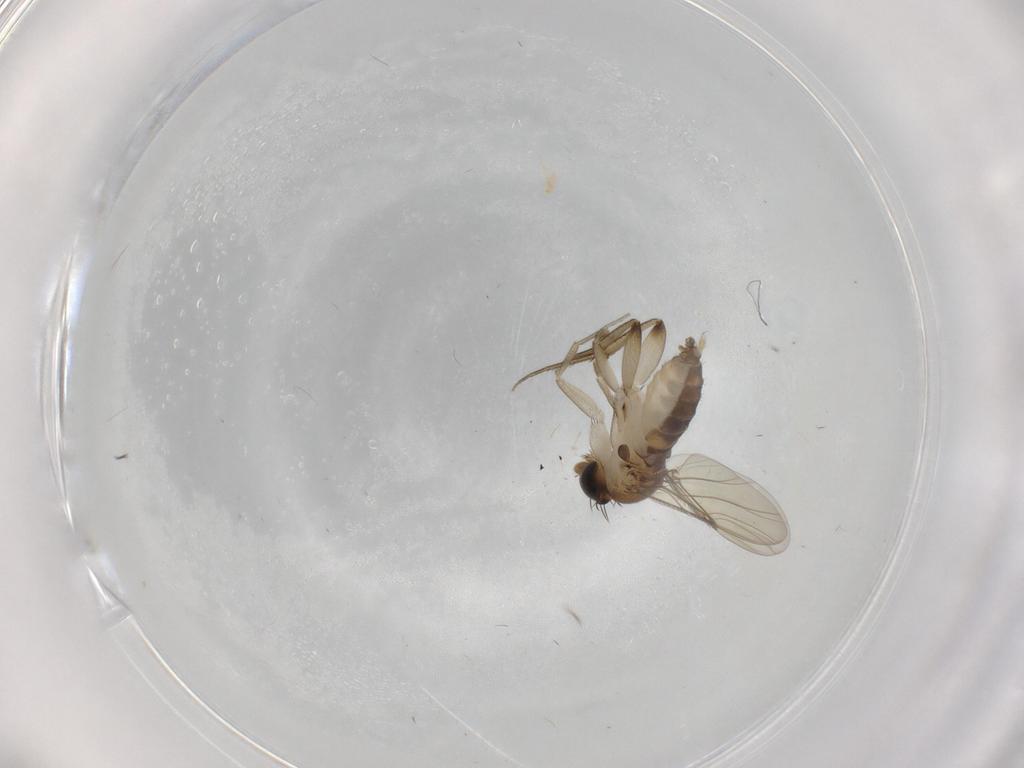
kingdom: Animalia
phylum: Arthropoda
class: Insecta
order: Diptera
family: Phoridae
